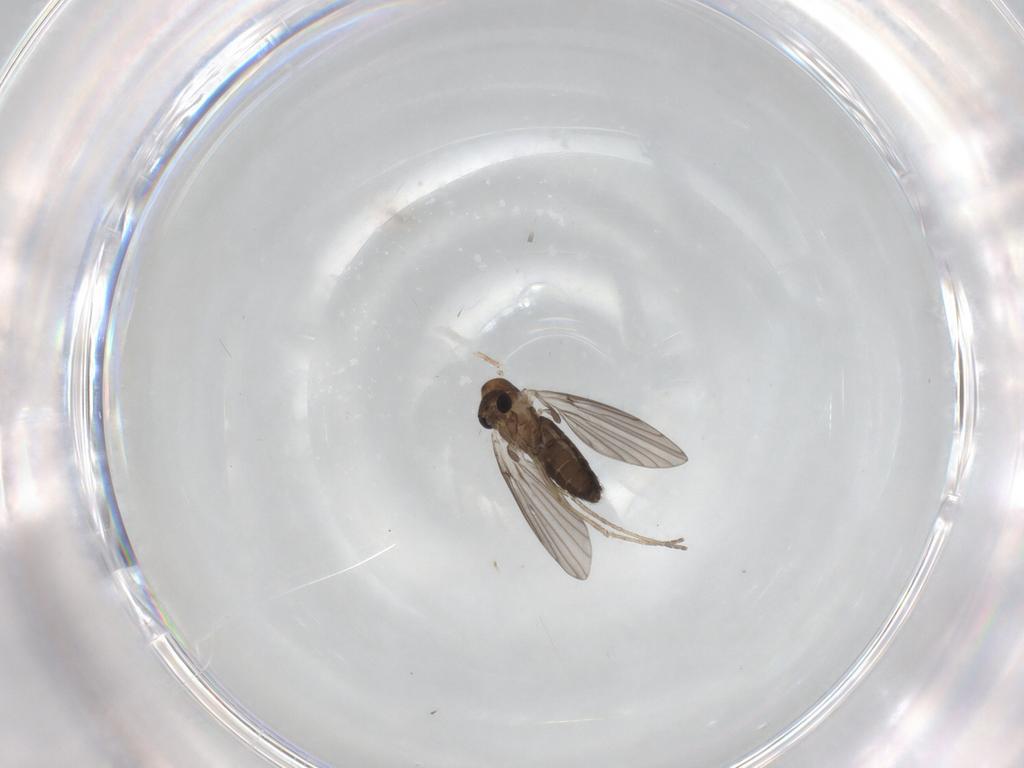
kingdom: Animalia
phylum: Arthropoda
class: Insecta
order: Diptera
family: Psychodidae
